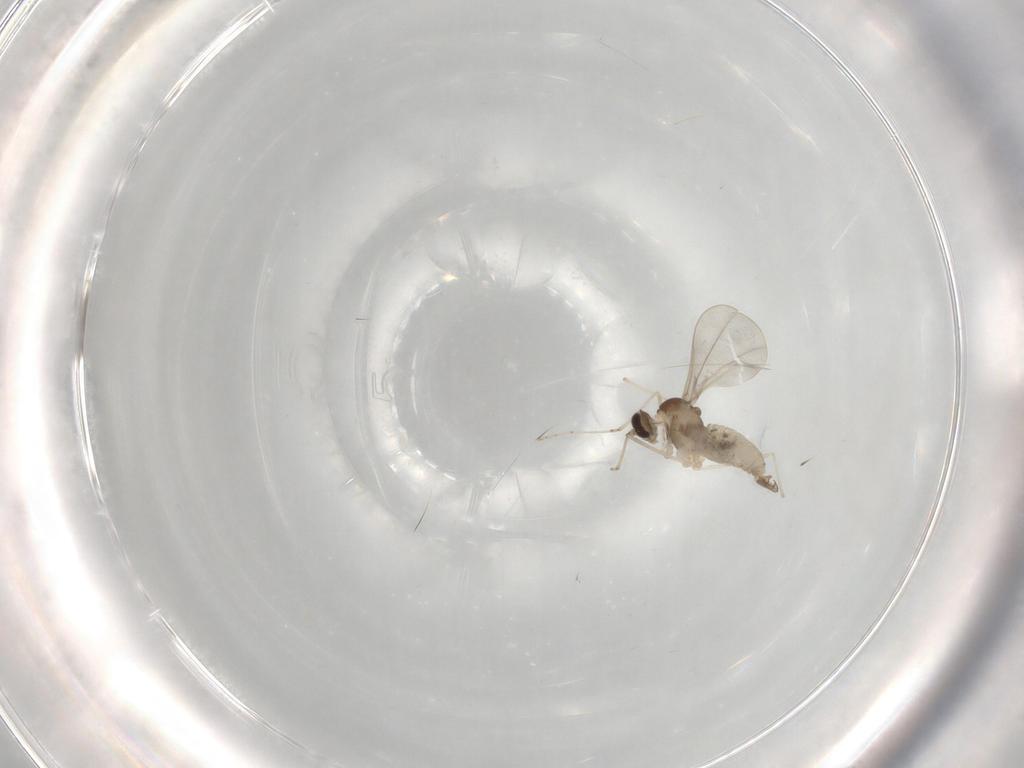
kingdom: Animalia
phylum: Arthropoda
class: Insecta
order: Diptera
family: Cecidomyiidae
